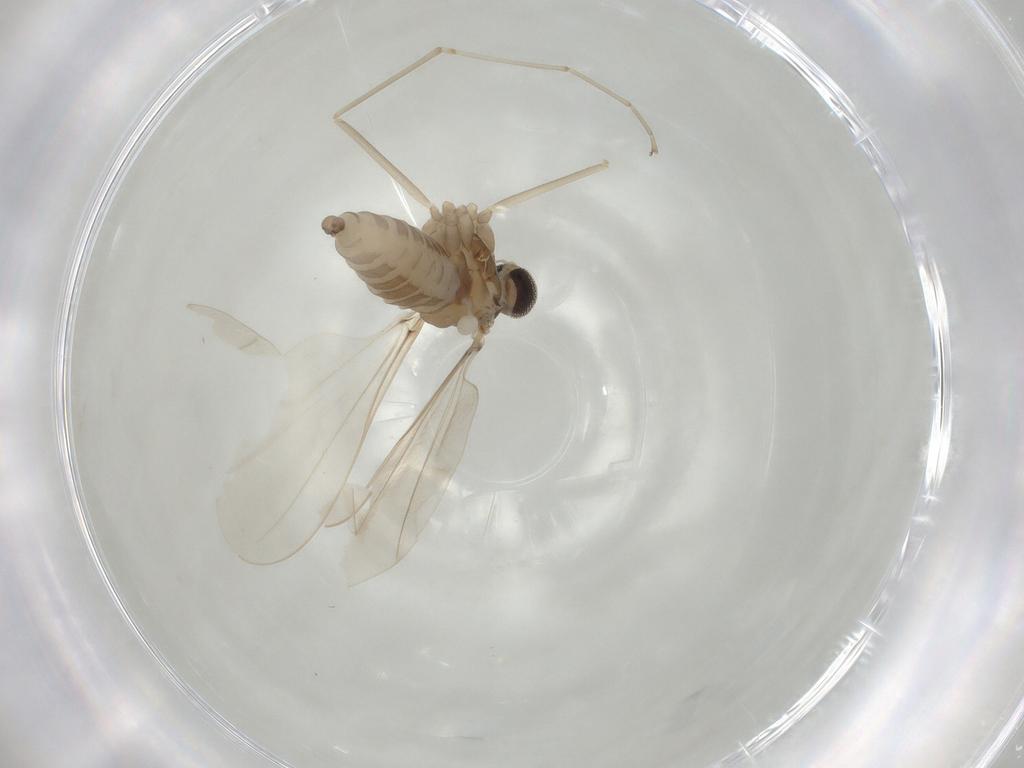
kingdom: Animalia
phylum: Arthropoda
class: Insecta
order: Diptera
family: Cecidomyiidae
